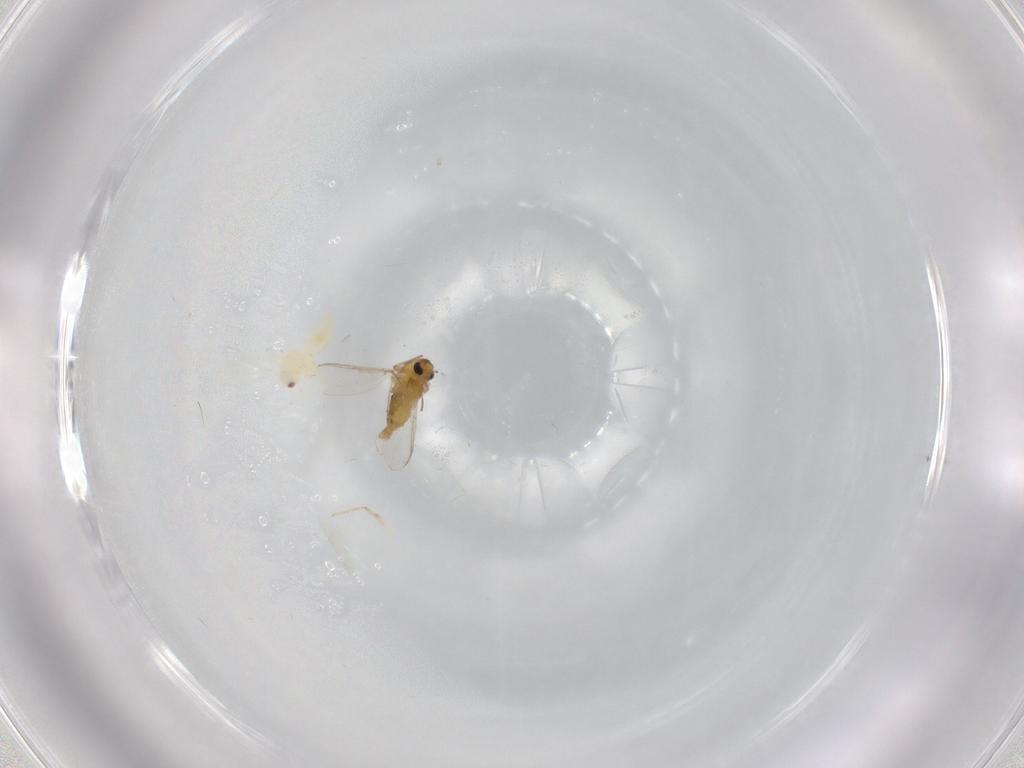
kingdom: Animalia
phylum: Arthropoda
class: Insecta
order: Diptera
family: Chironomidae
